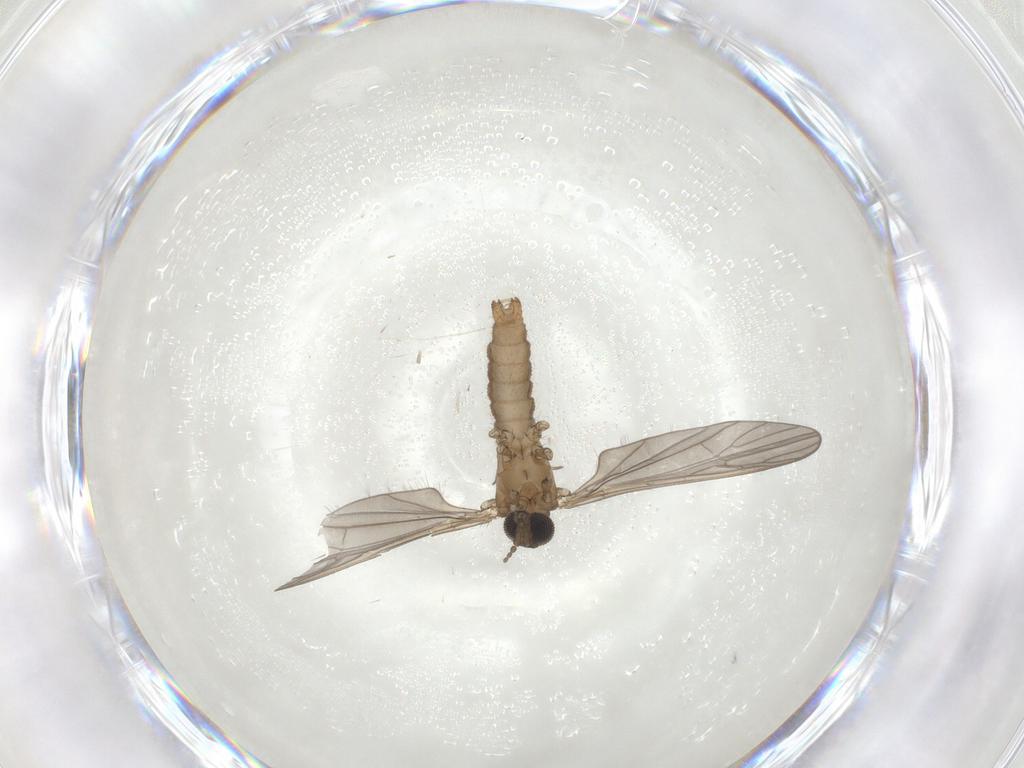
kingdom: Animalia
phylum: Arthropoda
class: Insecta
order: Diptera
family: Limoniidae
